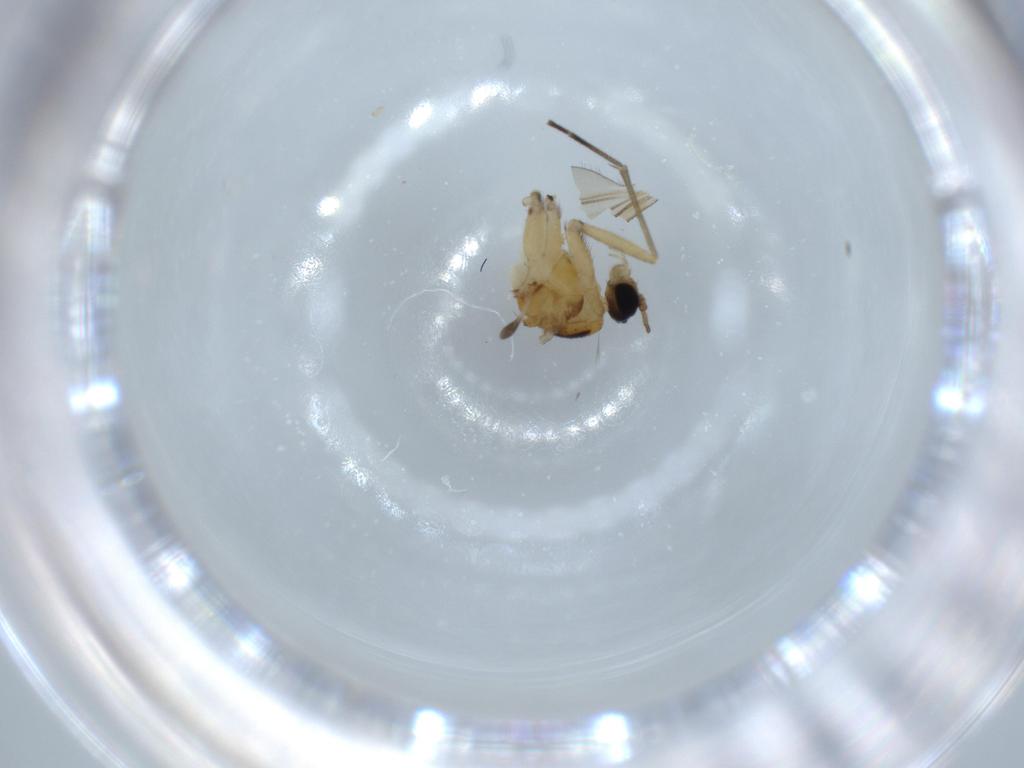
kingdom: Animalia
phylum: Arthropoda
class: Insecta
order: Diptera
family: Sciaridae
